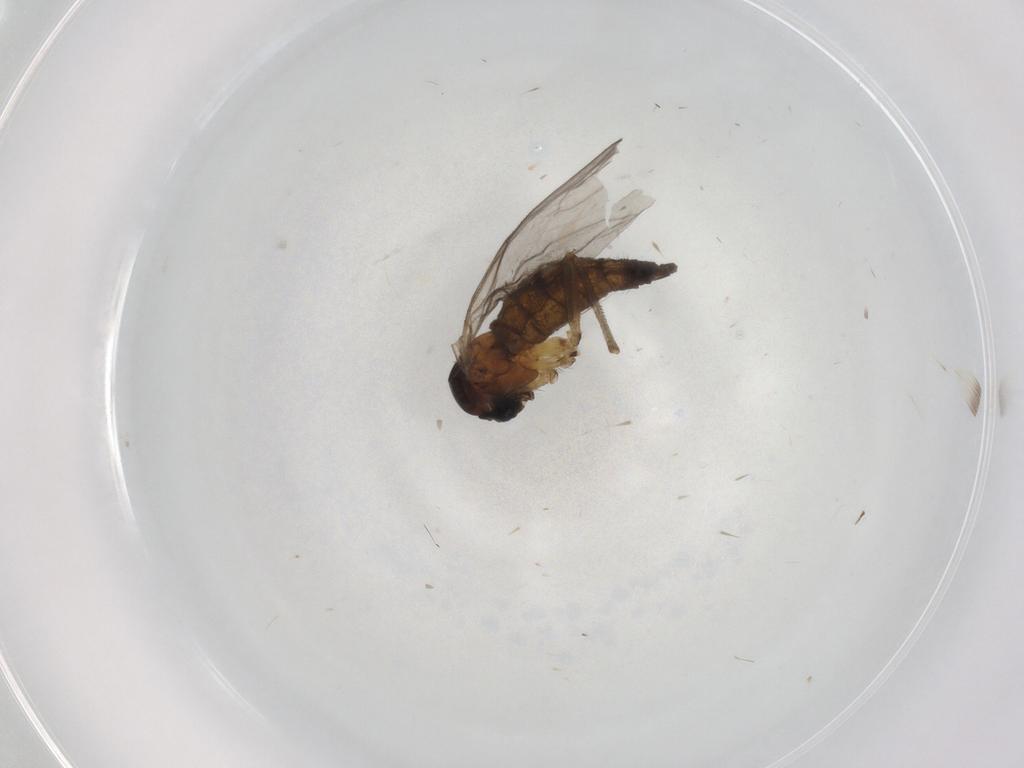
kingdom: Animalia
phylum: Arthropoda
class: Insecta
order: Diptera
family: Sciaridae
